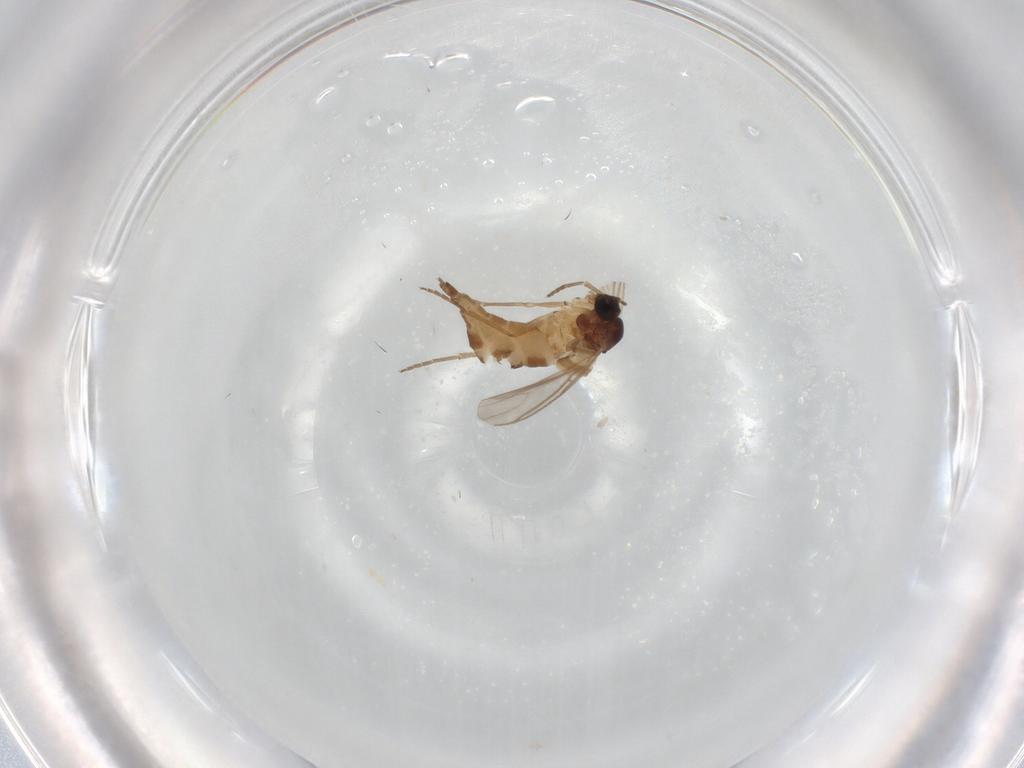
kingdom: Animalia
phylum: Arthropoda
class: Insecta
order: Diptera
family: Sciaridae
